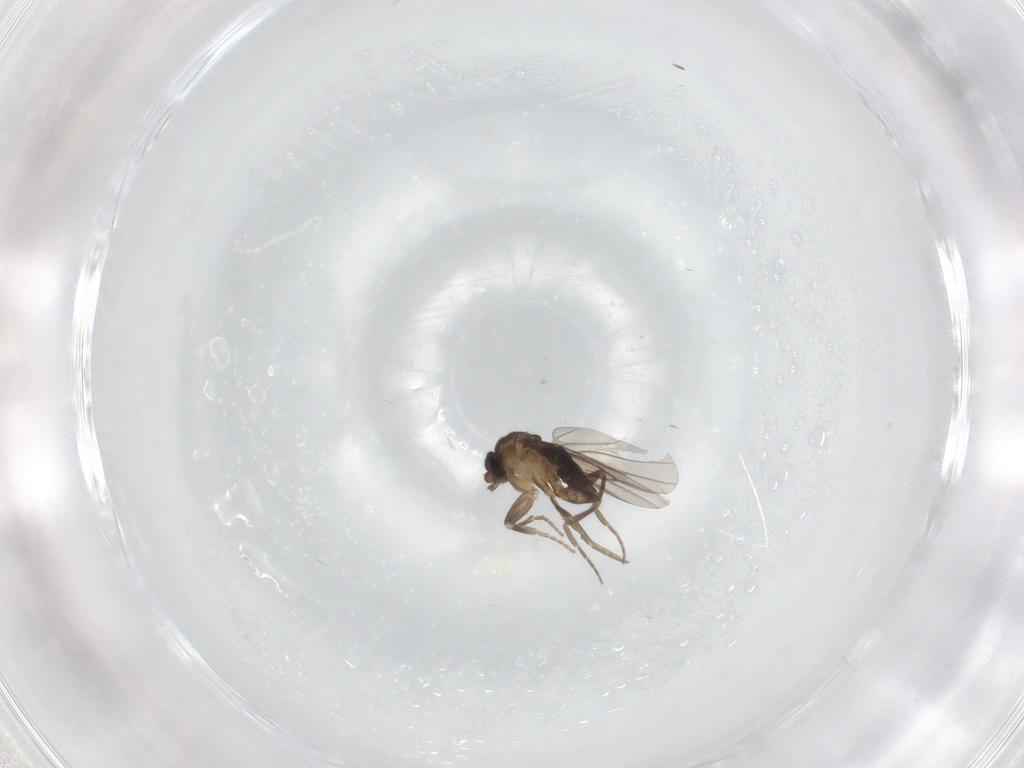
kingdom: Animalia
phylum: Arthropoda
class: Insecta
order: Diptera
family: Phoridae
